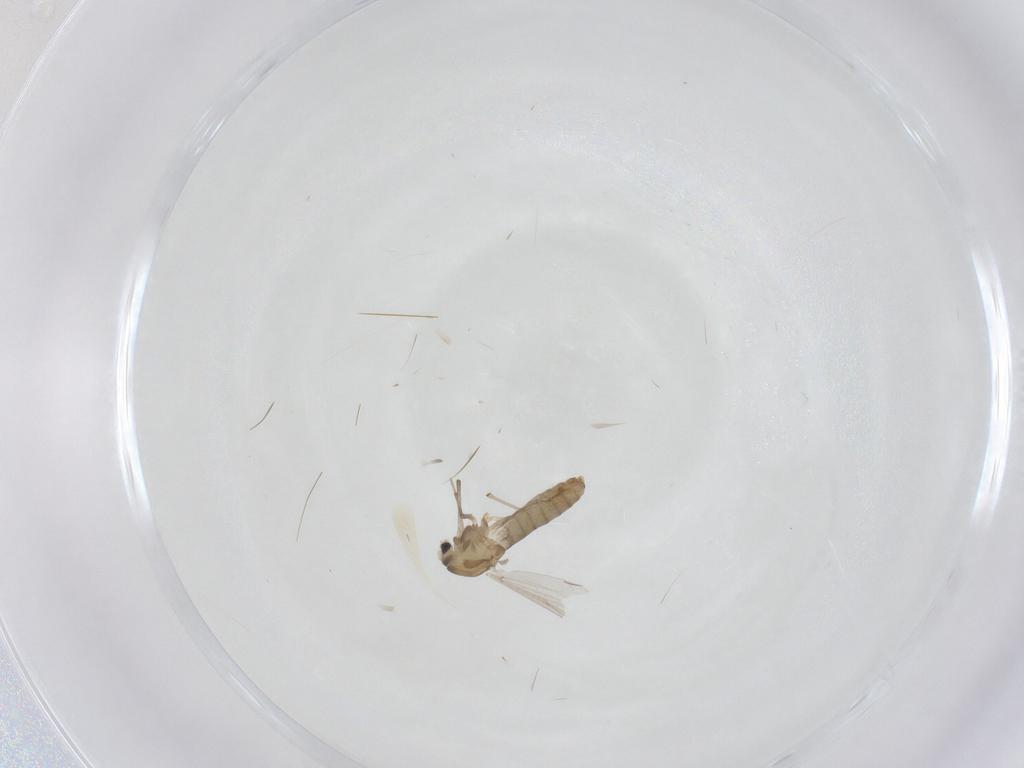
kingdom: Animalia
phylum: Arthropoda
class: Insecta
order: Diptera
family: Chironomidae
